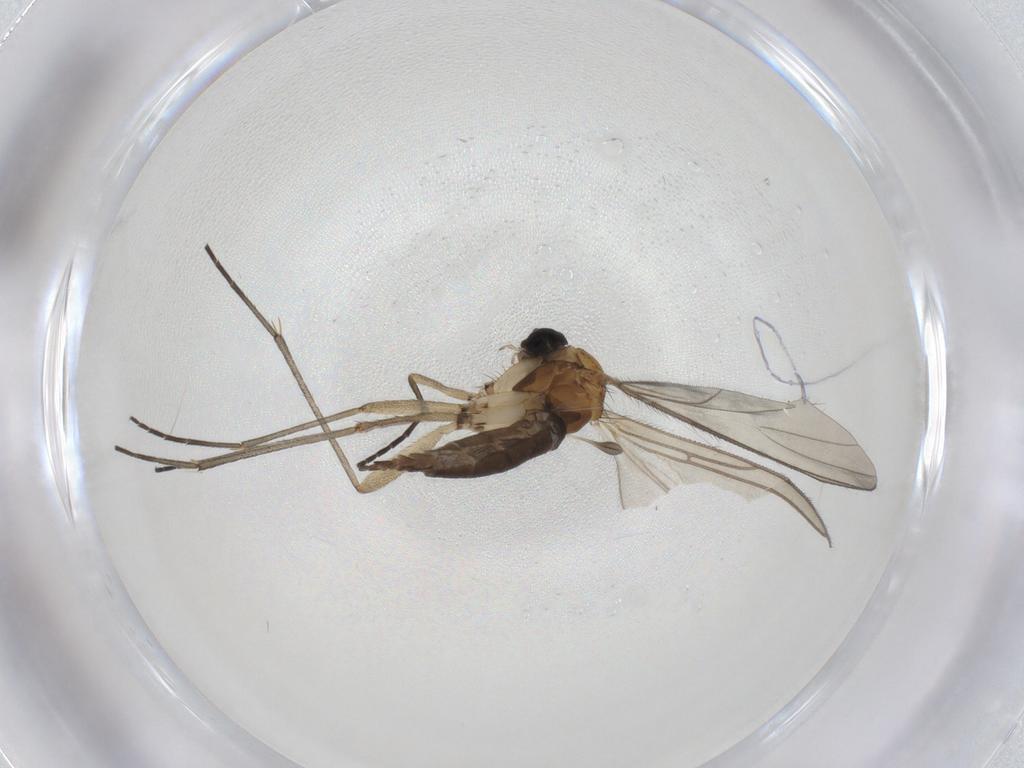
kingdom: Animalia
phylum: Arthropoda
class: Insecta
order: Diptera
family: Sciaridae
